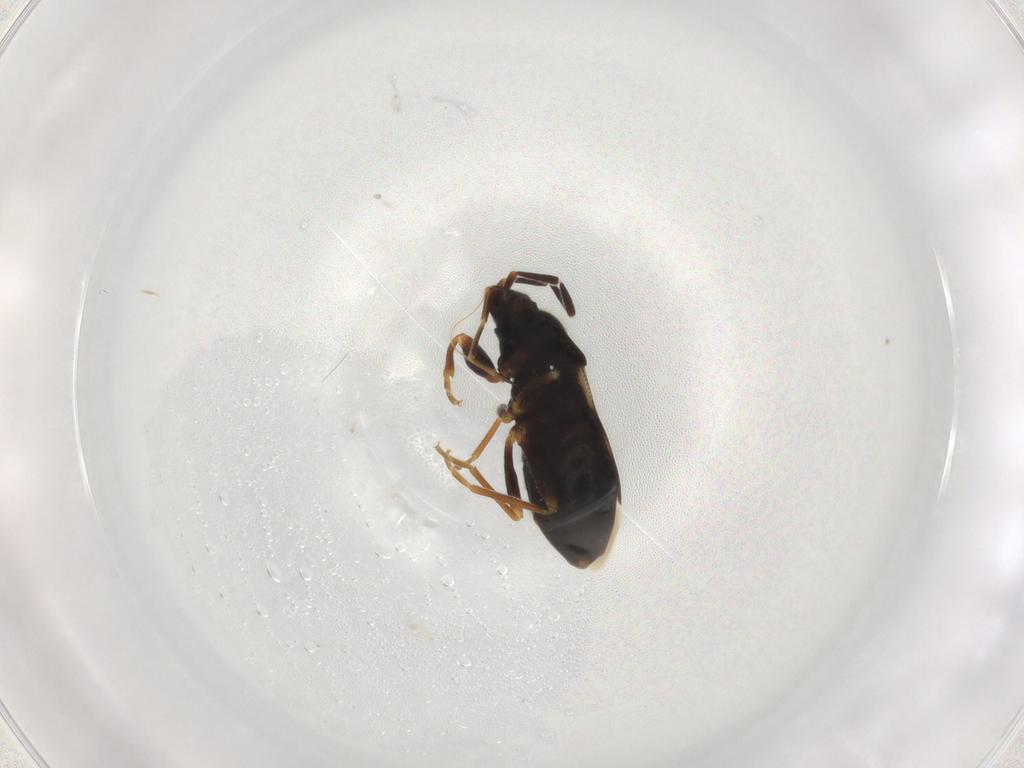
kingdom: Animalia
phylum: Arthropoda
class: Insecta
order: Hemiptera
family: Rhyparochromidae
